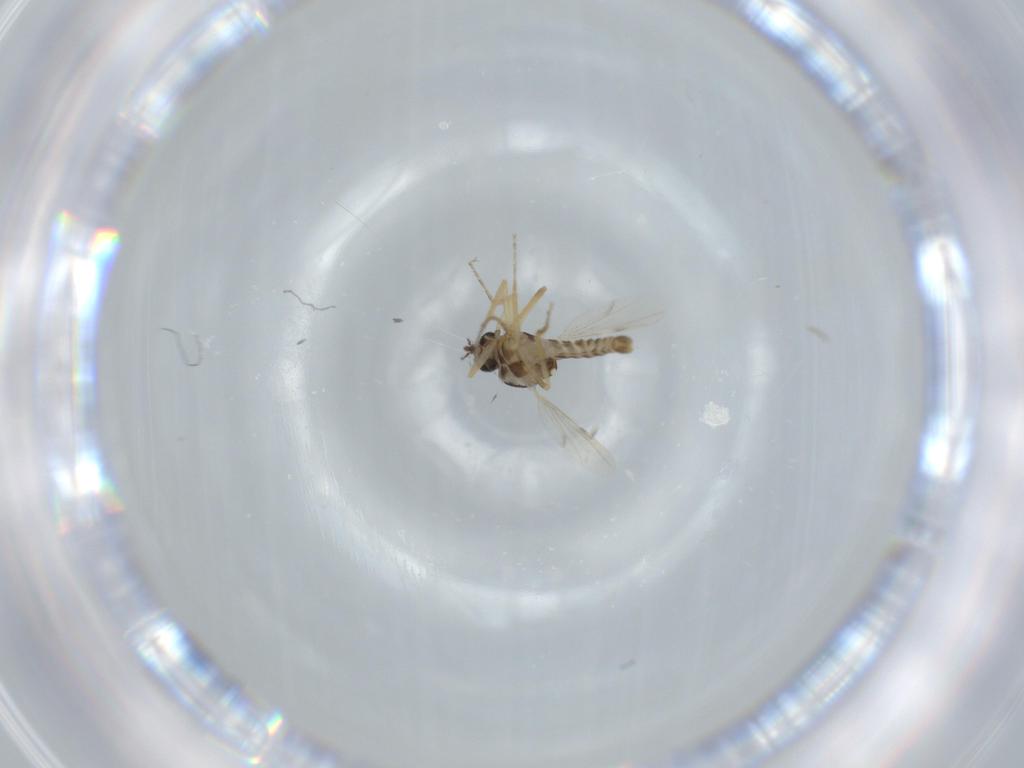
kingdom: Animalia
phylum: Arthropoda
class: Insecta
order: Diptera
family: Ceratopogonidae
